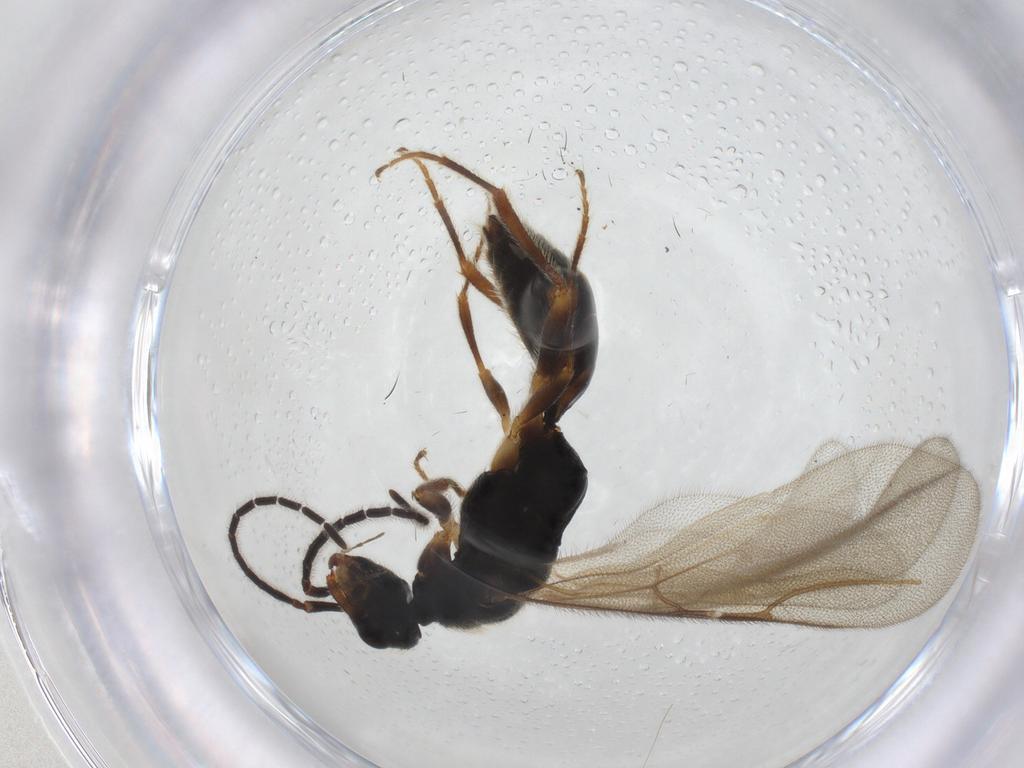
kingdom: Animalia
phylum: Arthropoda
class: Insecta
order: Hymenoptera
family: Bethylidae
